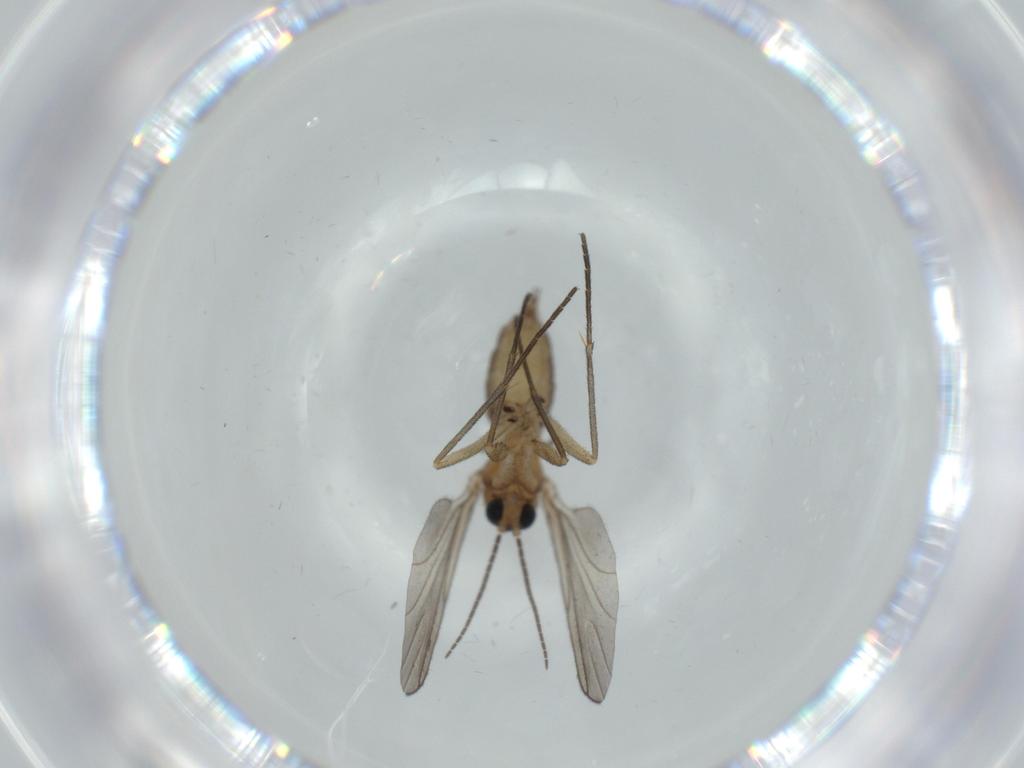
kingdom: Animalia
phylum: Arthropoda
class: Insecta
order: Diptera
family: Sciaridae
